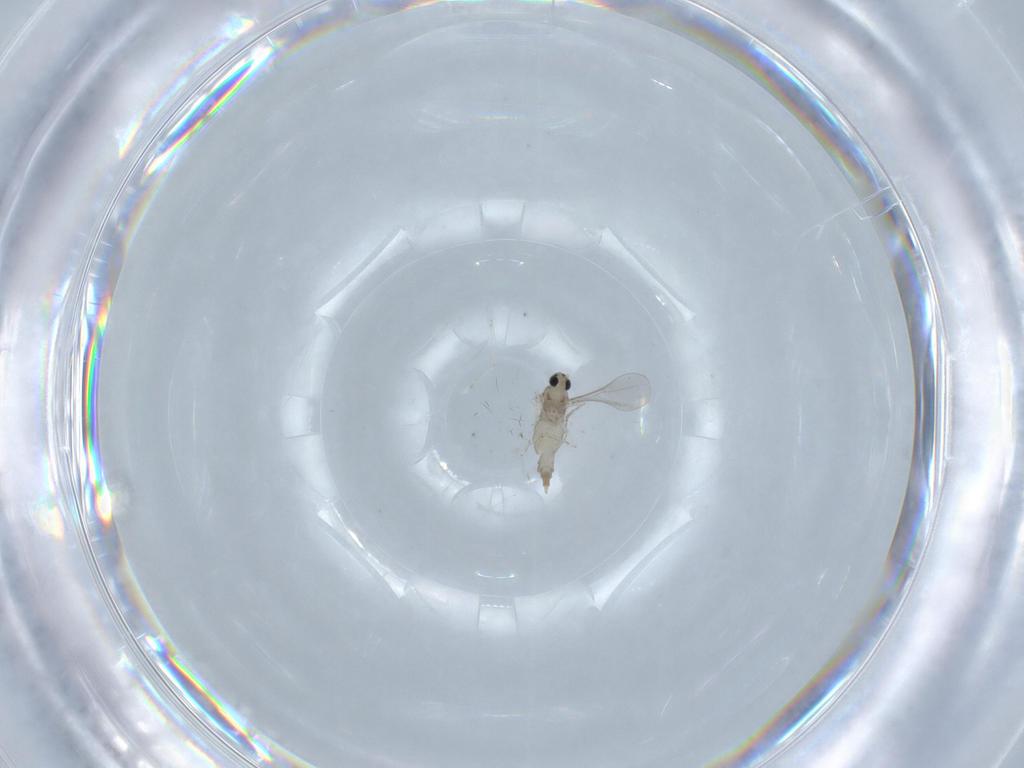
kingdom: Animalia
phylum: Arthropoda
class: Insecta
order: Diptera
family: Cecidomyiidae
